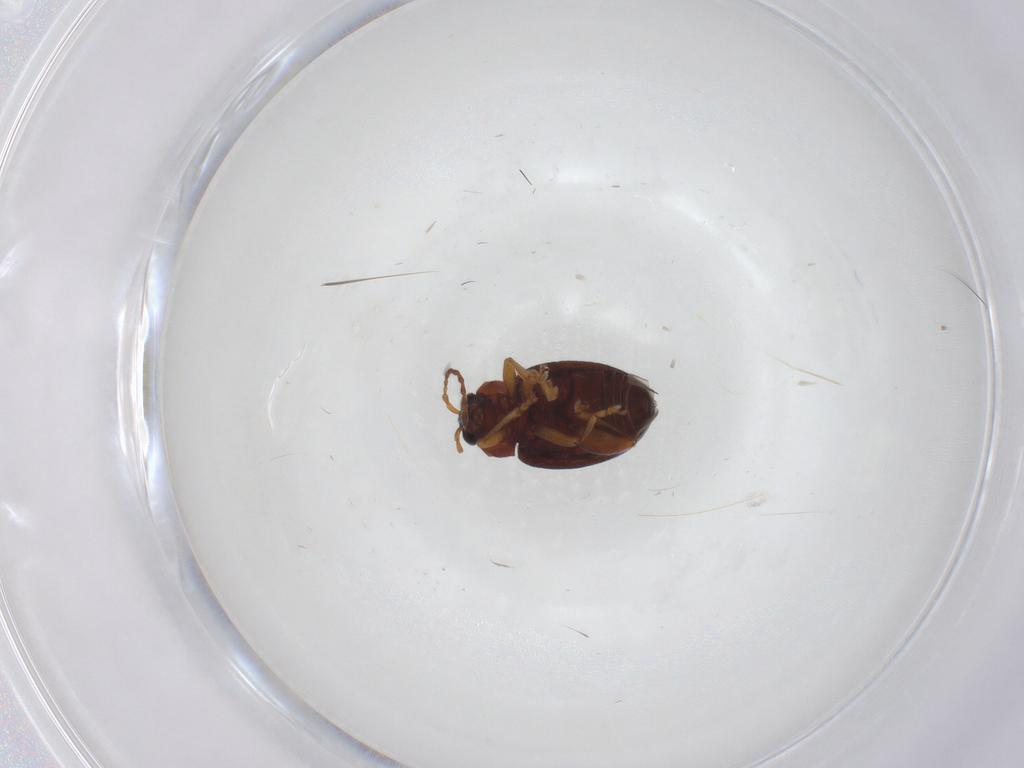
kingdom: Animalia
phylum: Arthropoda
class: Insecta
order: Coleoptera
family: Chrysomelidae
